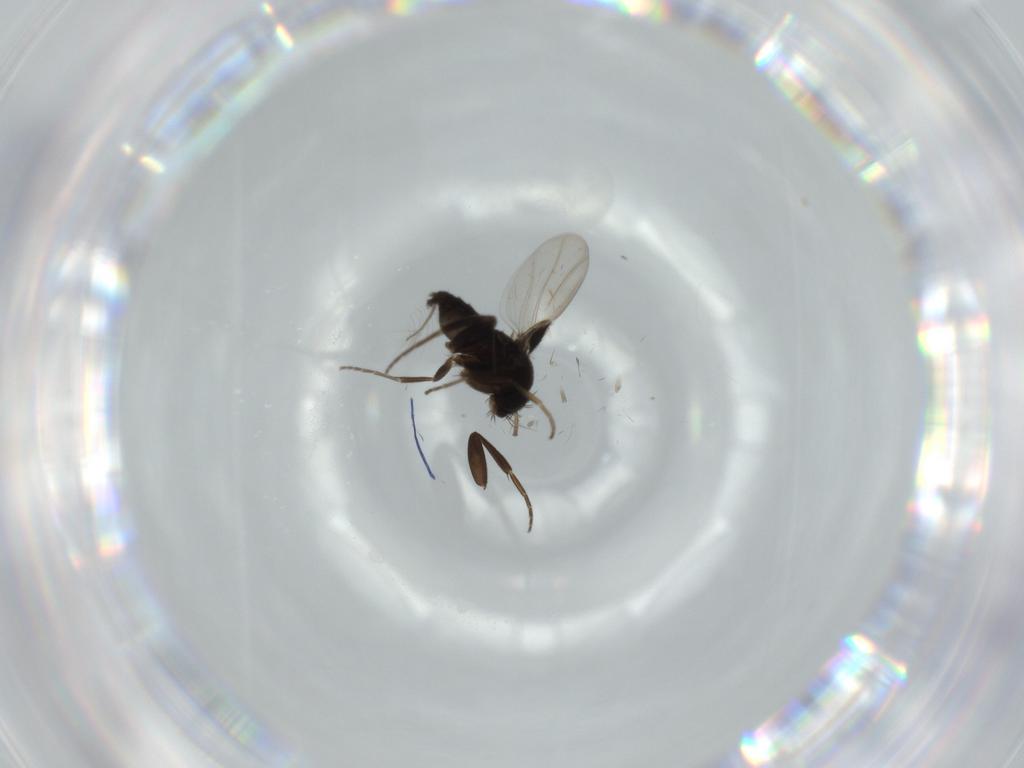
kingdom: Animalia
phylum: Arthropoda
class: Insecta
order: Diptera
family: Phoridae
